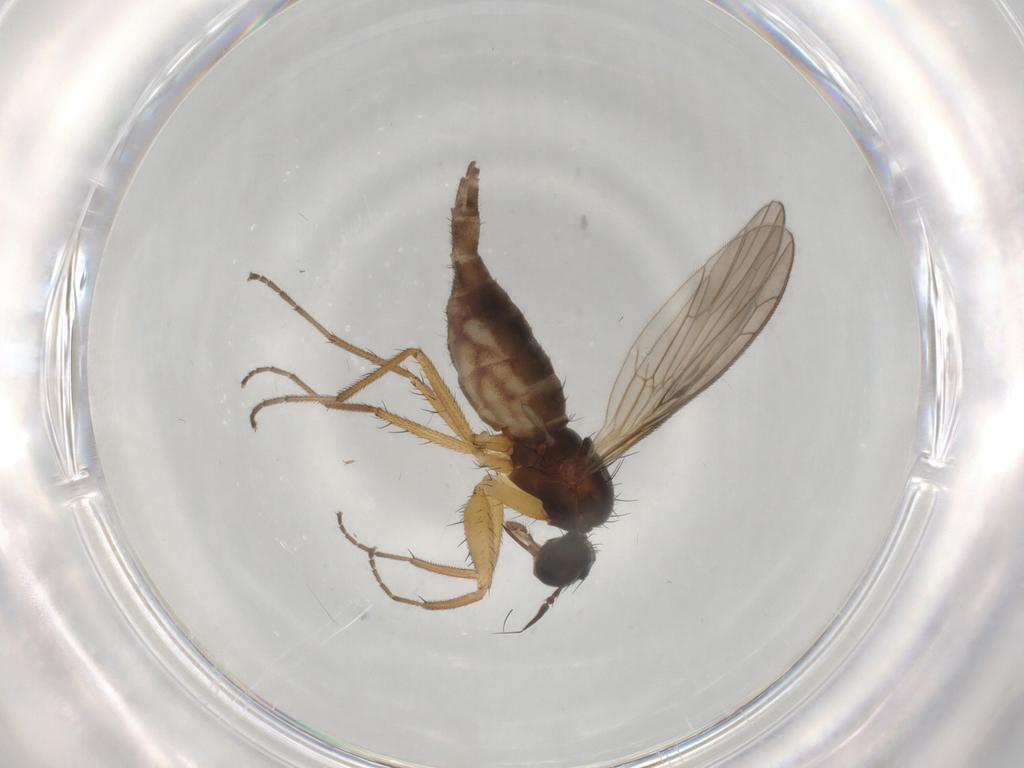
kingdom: Animalia
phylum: Arthropoda
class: Insecta
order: Diptera
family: Sciaridae
